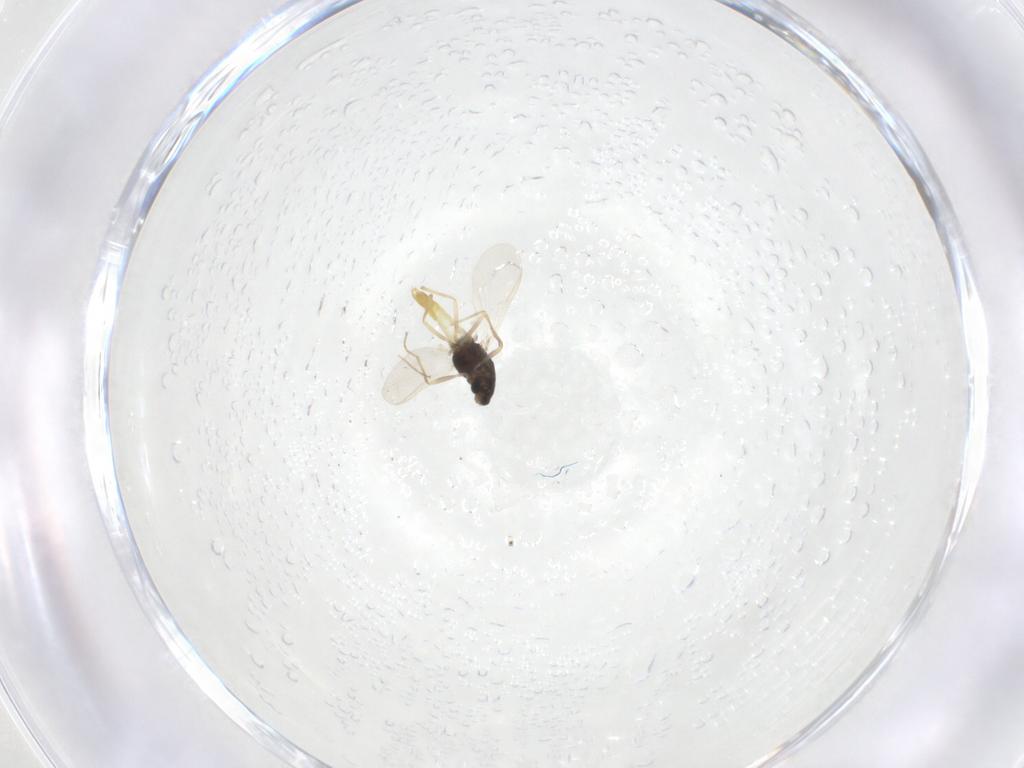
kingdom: Animalia
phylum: Arthropoda
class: Insecta
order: Diptera
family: Chironomidae
